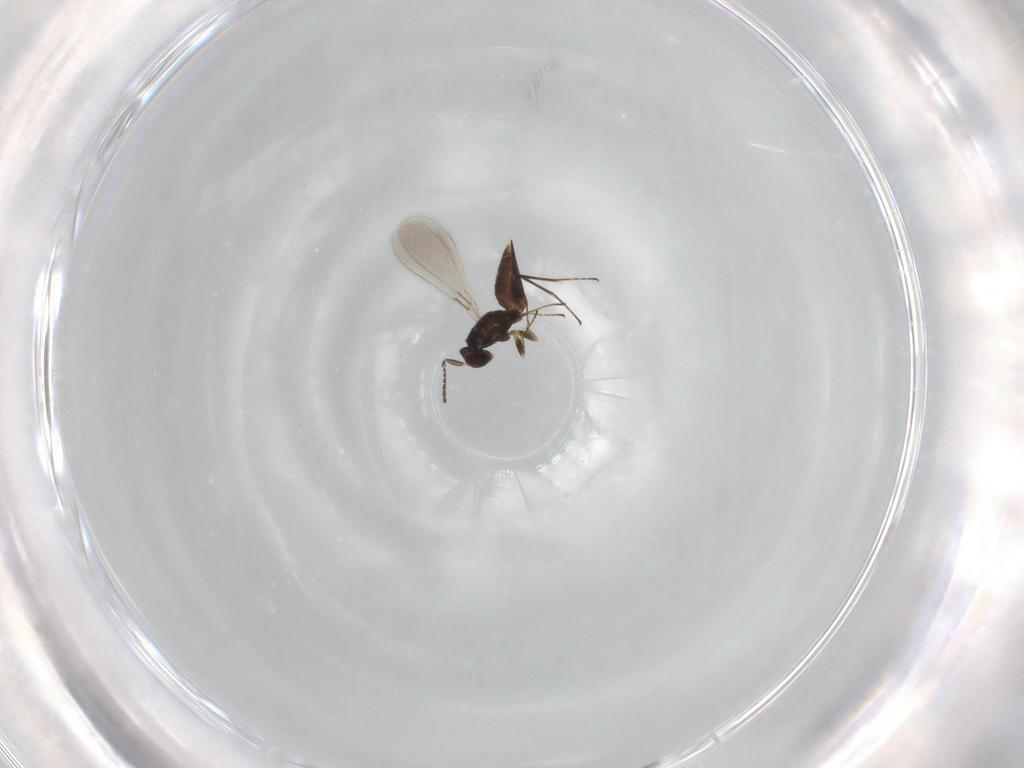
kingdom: Animalia
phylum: Arthropoda
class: Insecta
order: Hymenoptera
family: Mymaridae
